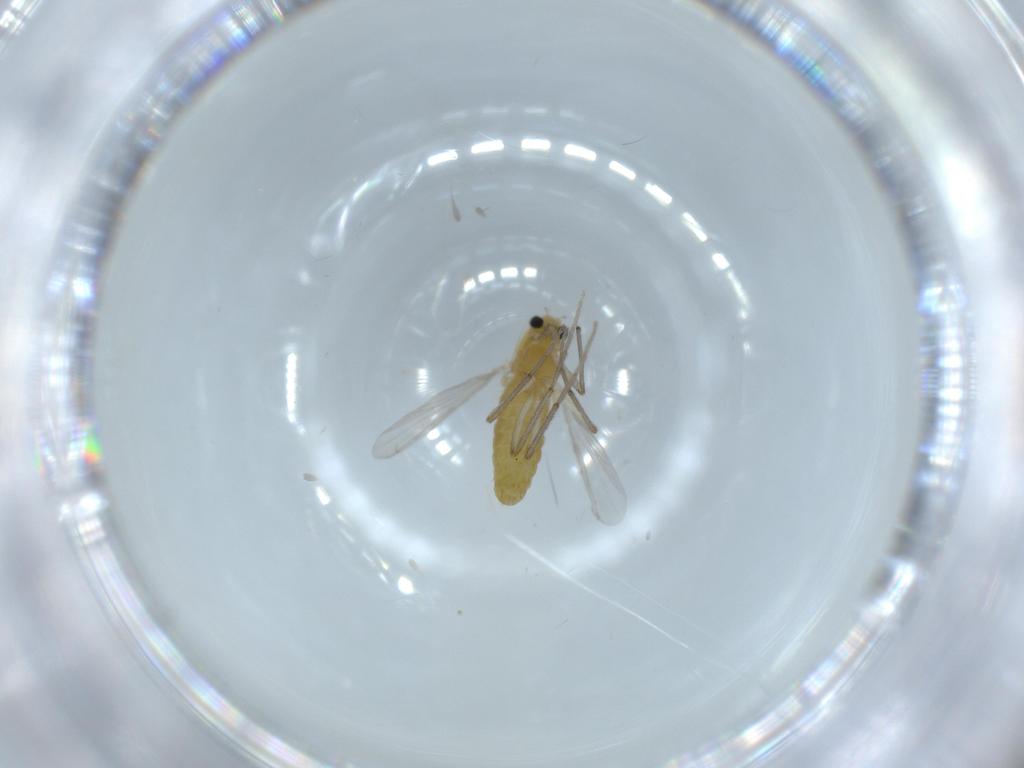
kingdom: Animalia
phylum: Arthropoda
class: Insecta
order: Diptera
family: Chironomidae
